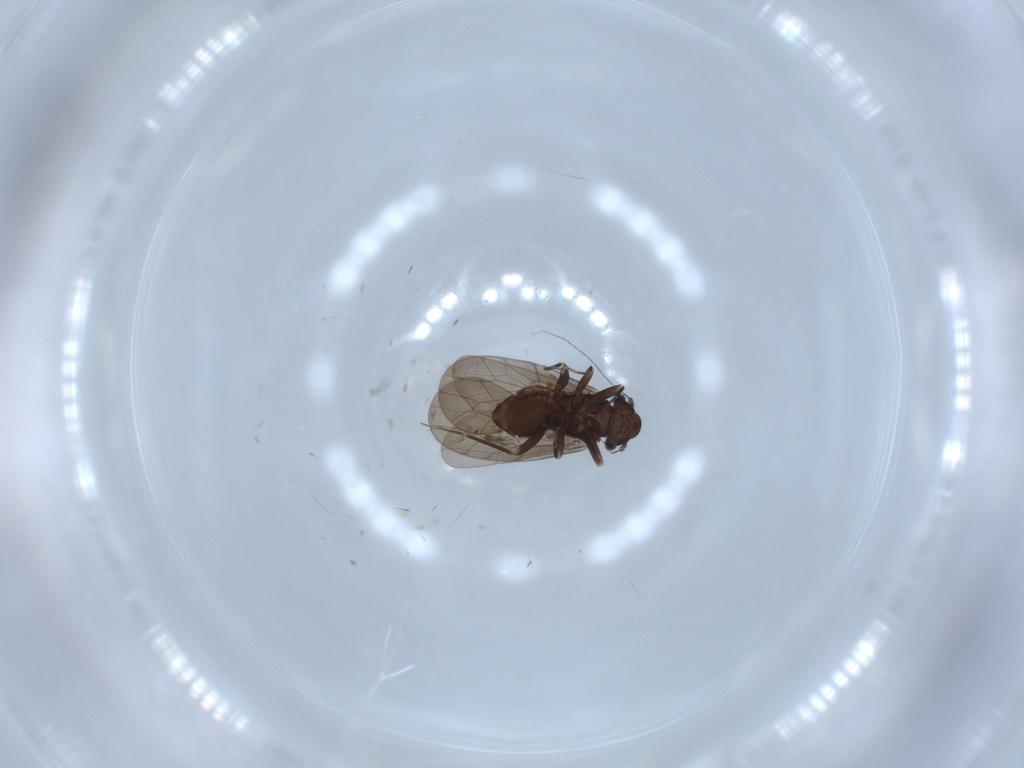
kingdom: Animalia
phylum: Arthropoda
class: Insecta
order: Psocodea
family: Lepidopsocidae
